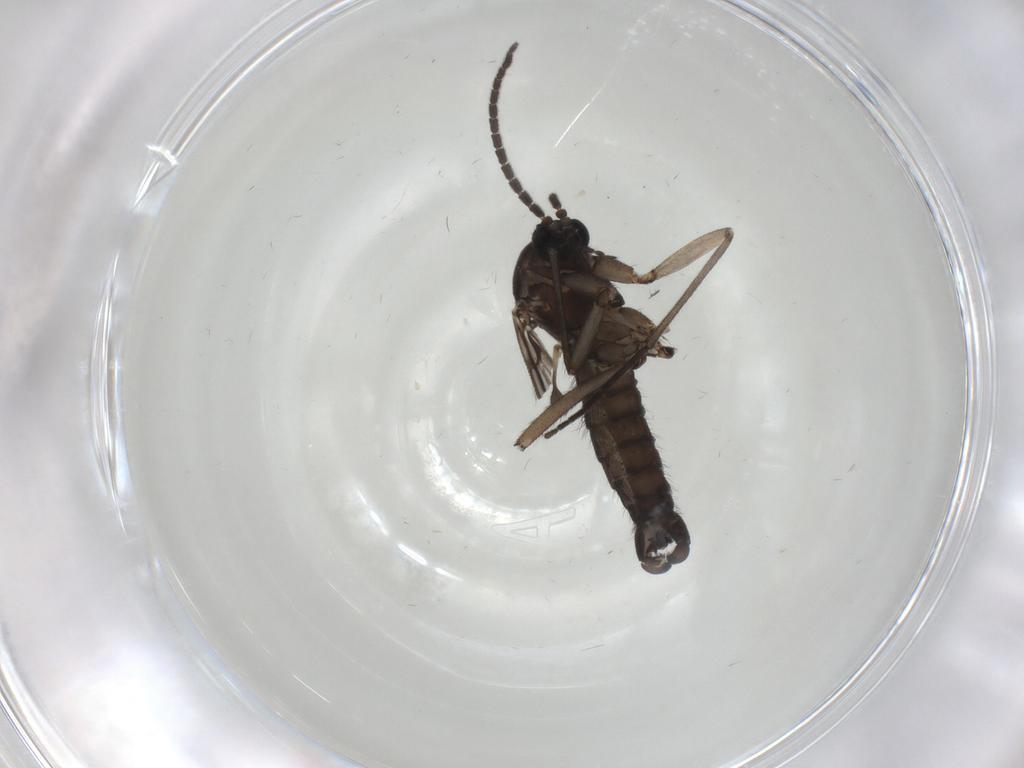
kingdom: Animalia
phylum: Arthropoda
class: Insecta
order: Diptera
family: Sciaridae
